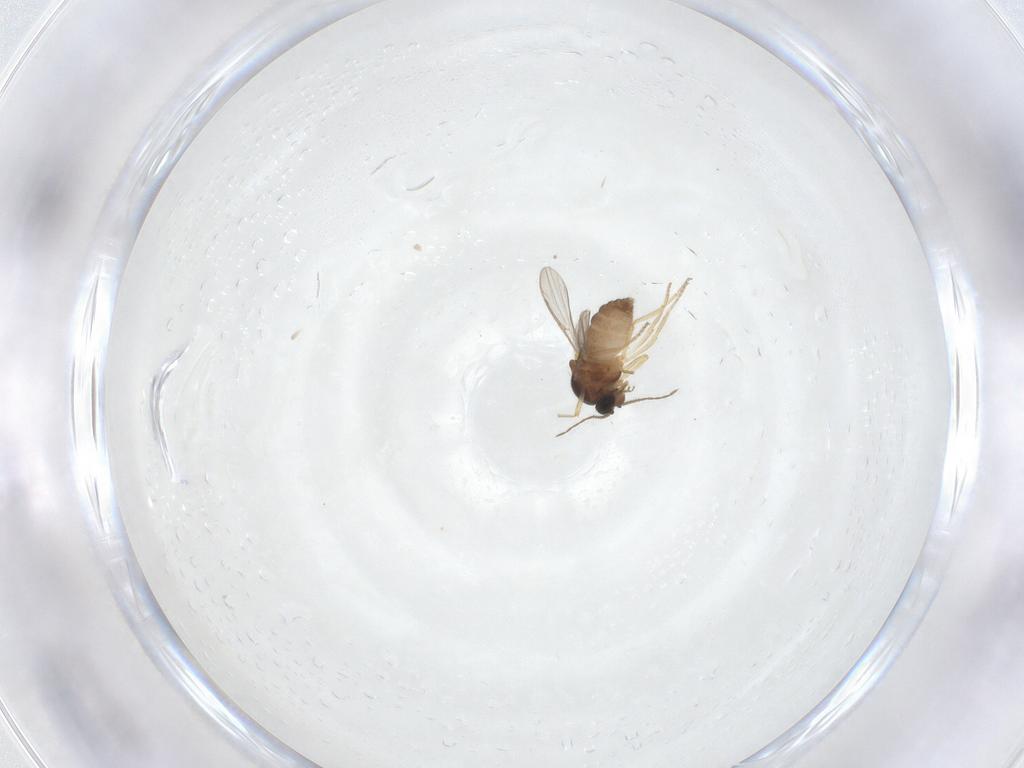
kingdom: Animalia
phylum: Arthropoda
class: Insecta
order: Diptera
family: Ceratopogonidae
